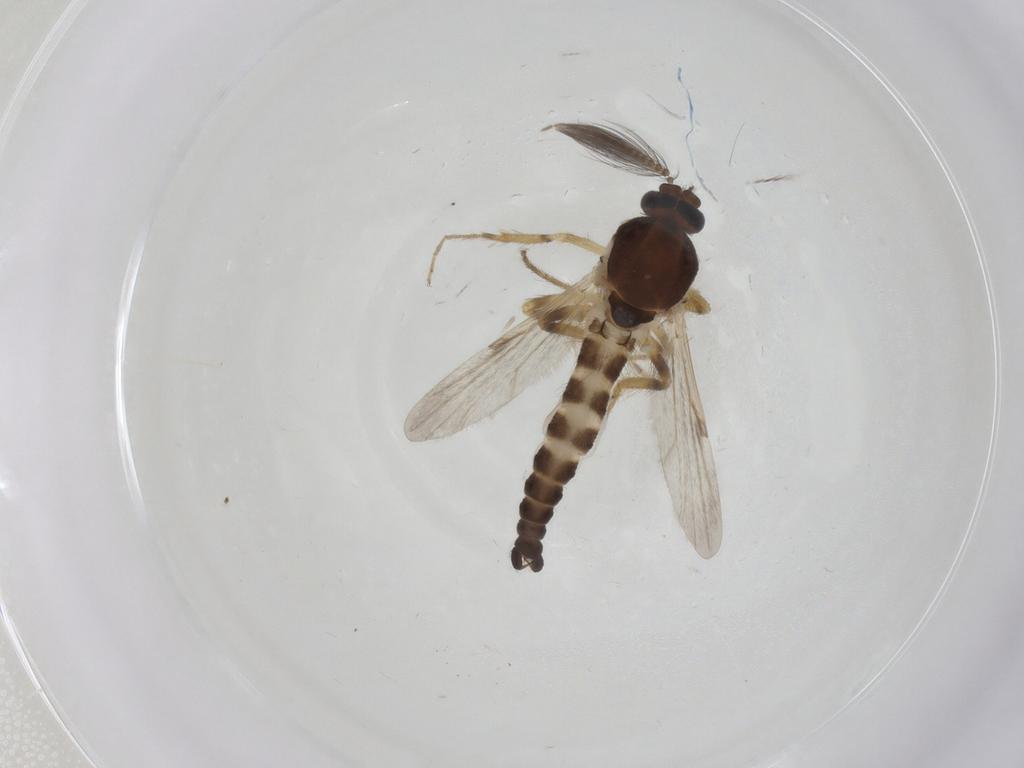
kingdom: Animalia
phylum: Arthropoda
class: Insecta
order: Diptera
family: Ceratopogonidae
